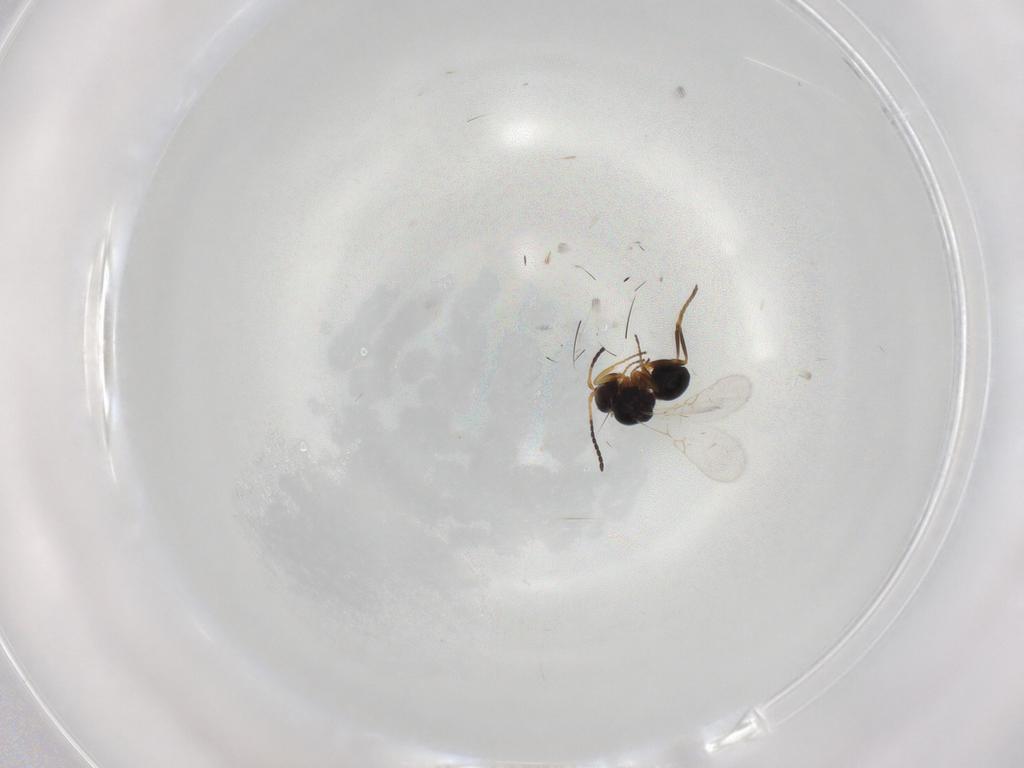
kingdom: Animalia
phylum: Arthropoda
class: Insecta
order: Hymenoptera
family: Figitidae
